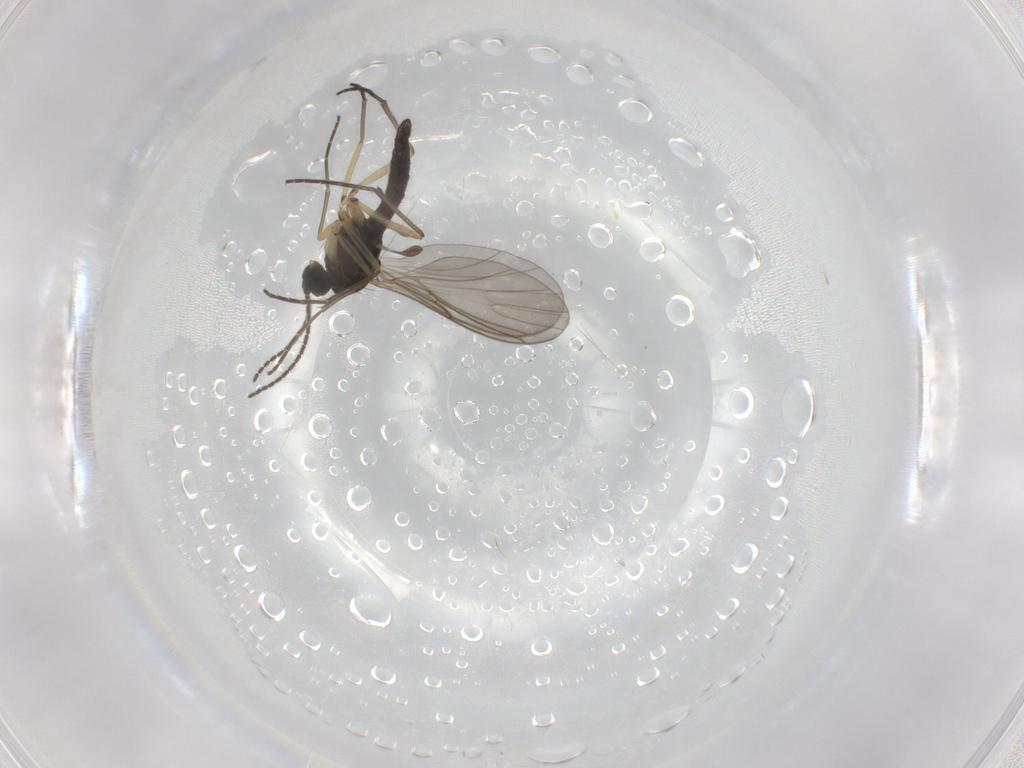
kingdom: Animalia
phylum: Arthropoda
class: Insecta
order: Diptera
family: Sciaridae
